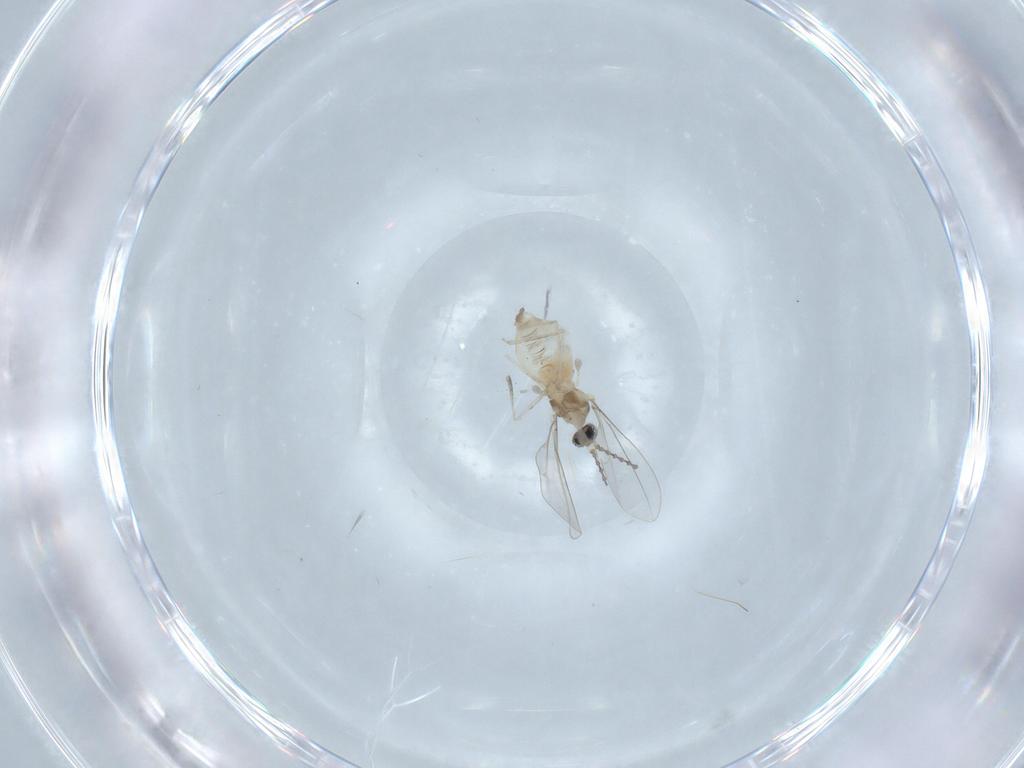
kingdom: Animalia
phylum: Arthropoda
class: Insecta
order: Diptera
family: Cecidomyiidae
